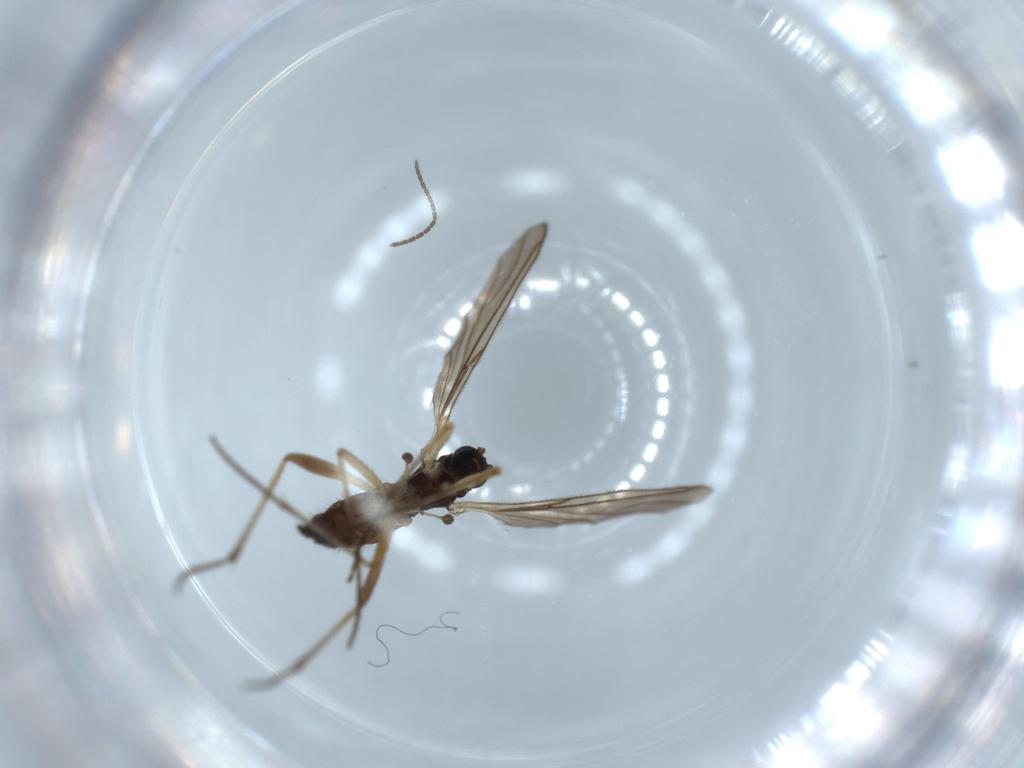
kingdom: Animalia
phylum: Arthropoda
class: Insecta
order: Diptera
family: Sciaridae
